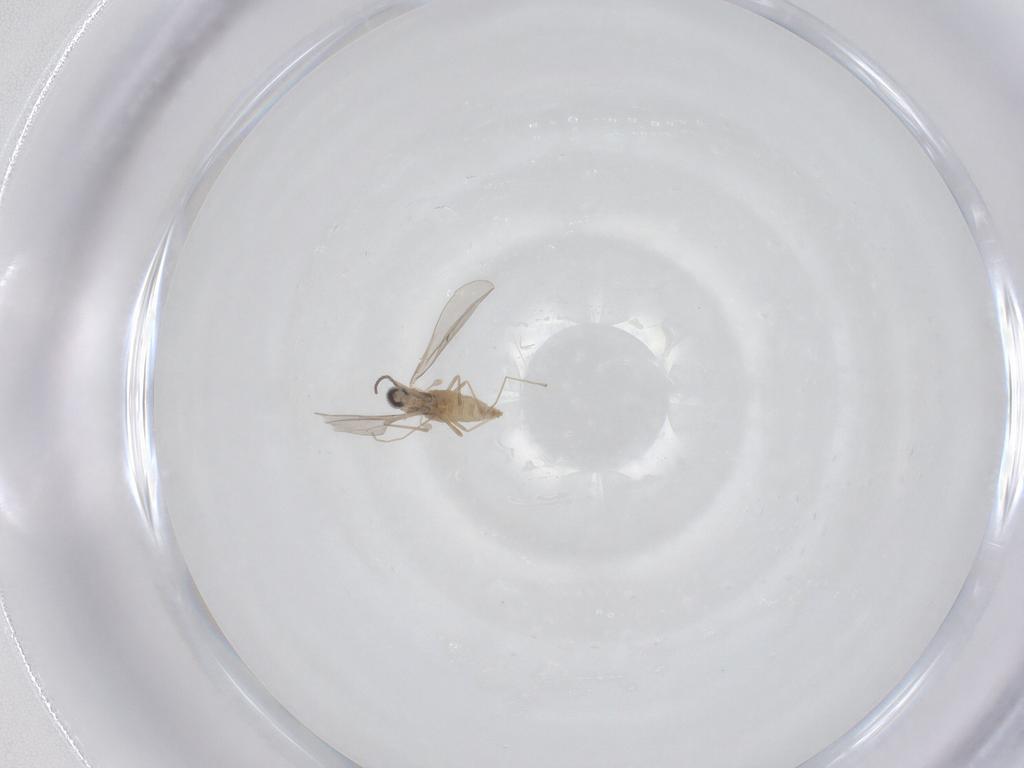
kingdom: Animalia
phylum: Arthropoda
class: Insecta
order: Diptera
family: Cecidomyiidae
